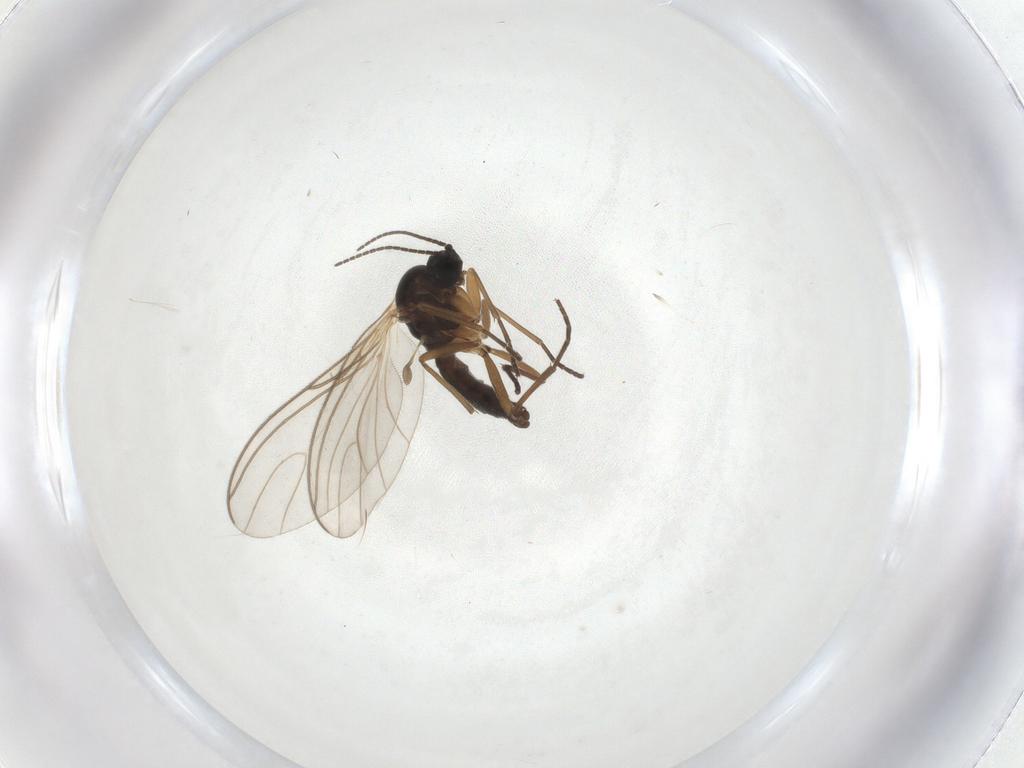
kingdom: Animalia
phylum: Arthropoda
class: Insecta
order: Diptera
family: Sciaridae
